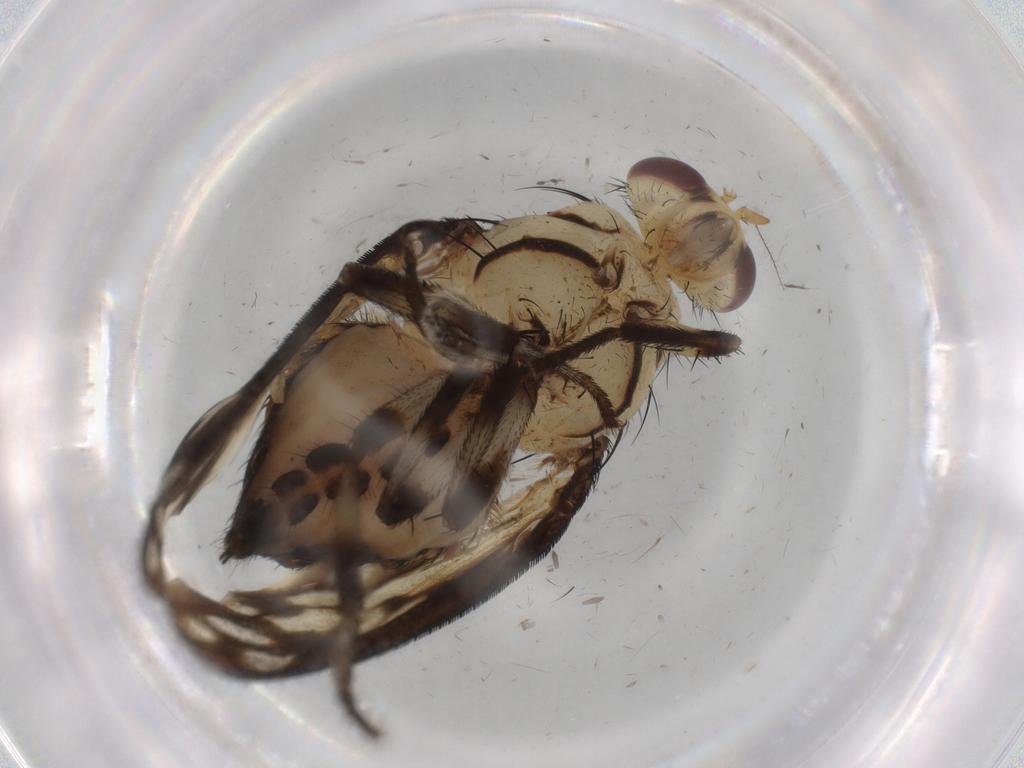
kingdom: Animalia
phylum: Arthropoda
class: Insecta
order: Diptera
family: Ceratopogonidae
